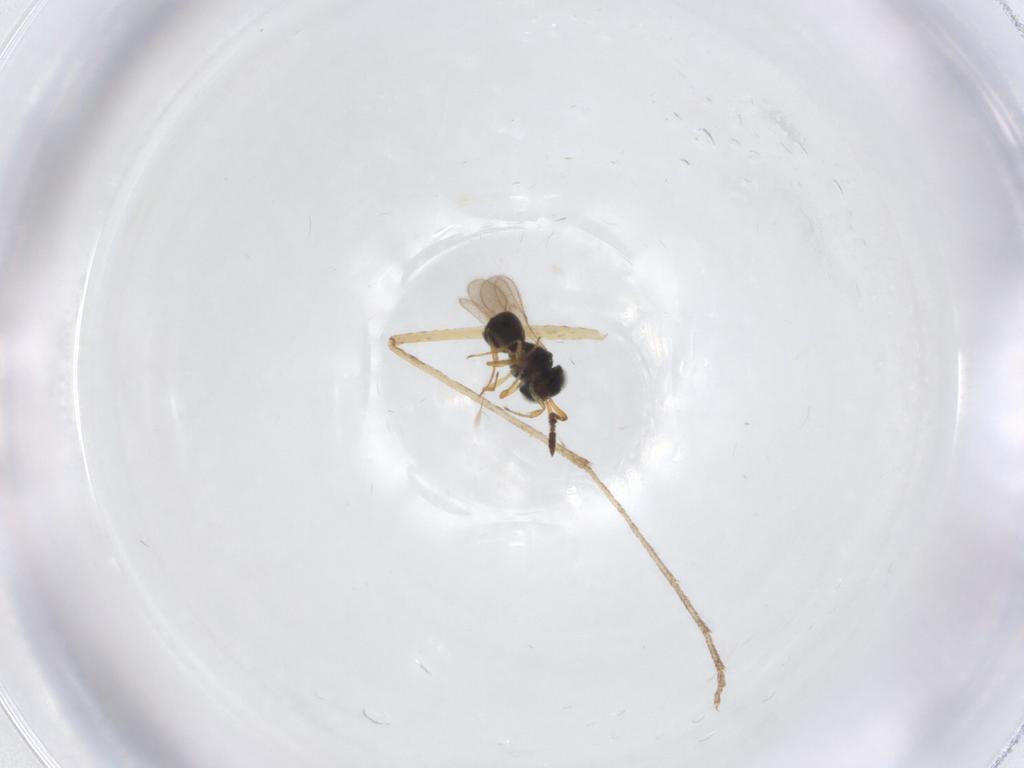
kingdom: Animalia
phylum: Arthropoda
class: Insecta
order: Hymenoptera
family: Scelionidae
